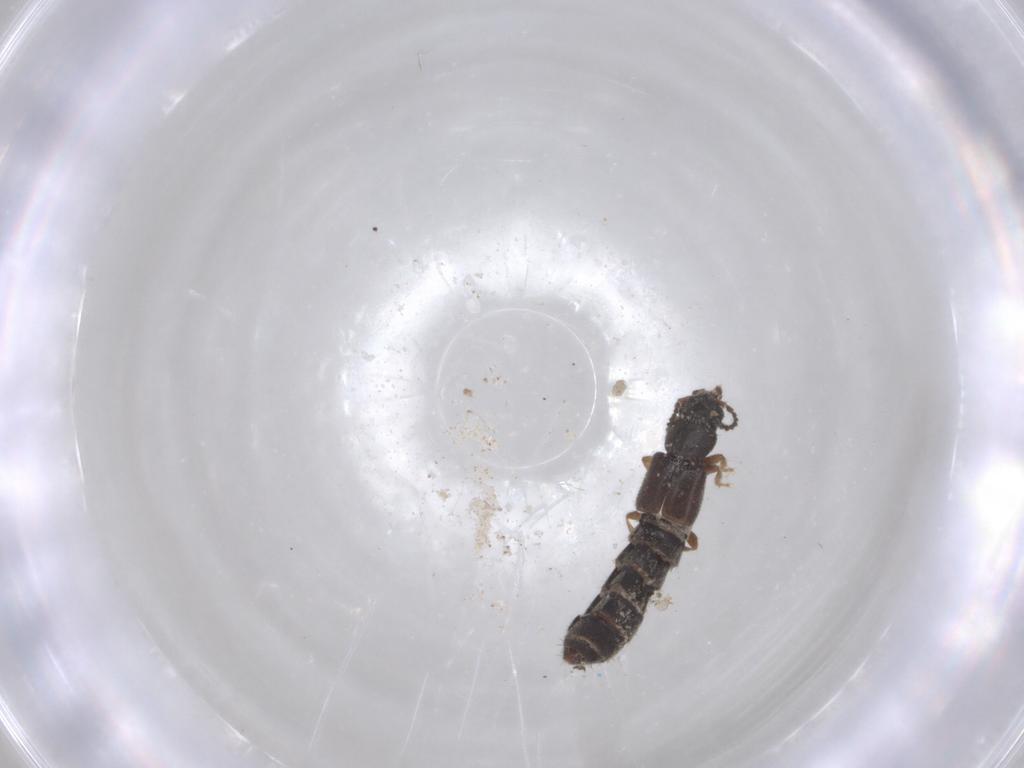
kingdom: Animalia
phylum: Arthropoda
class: Insecta
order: Coleoptera
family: Staphylinidae
